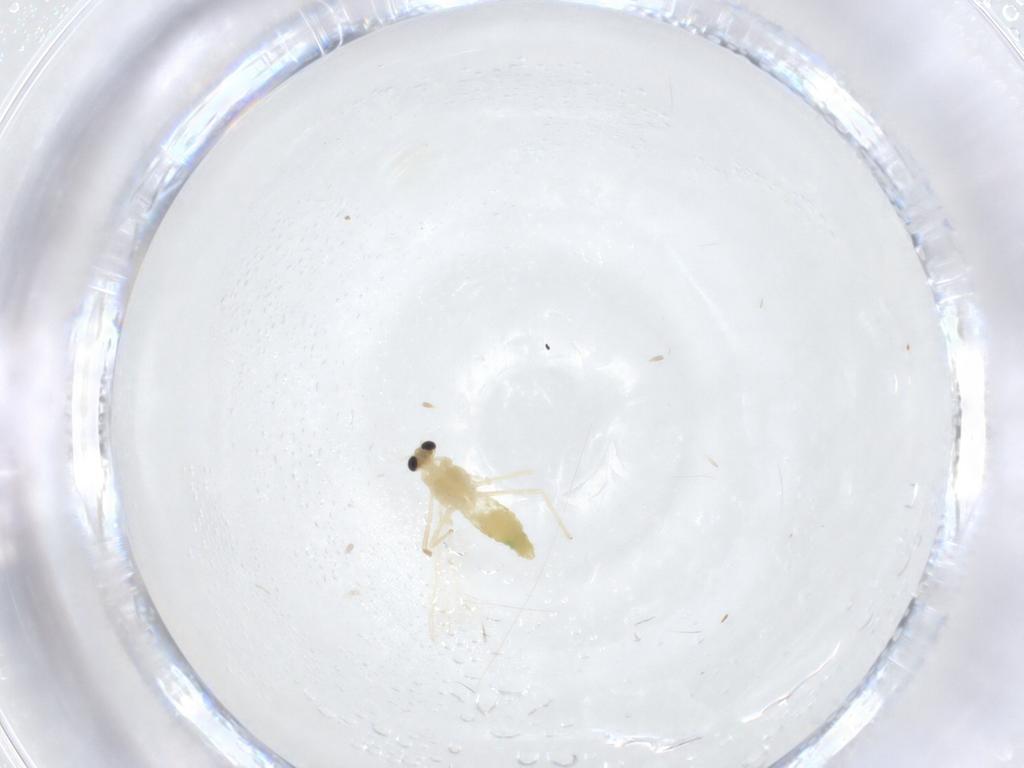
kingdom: Animalia
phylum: Arthropoda
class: Insecta
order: Diptera
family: Chironomidae
